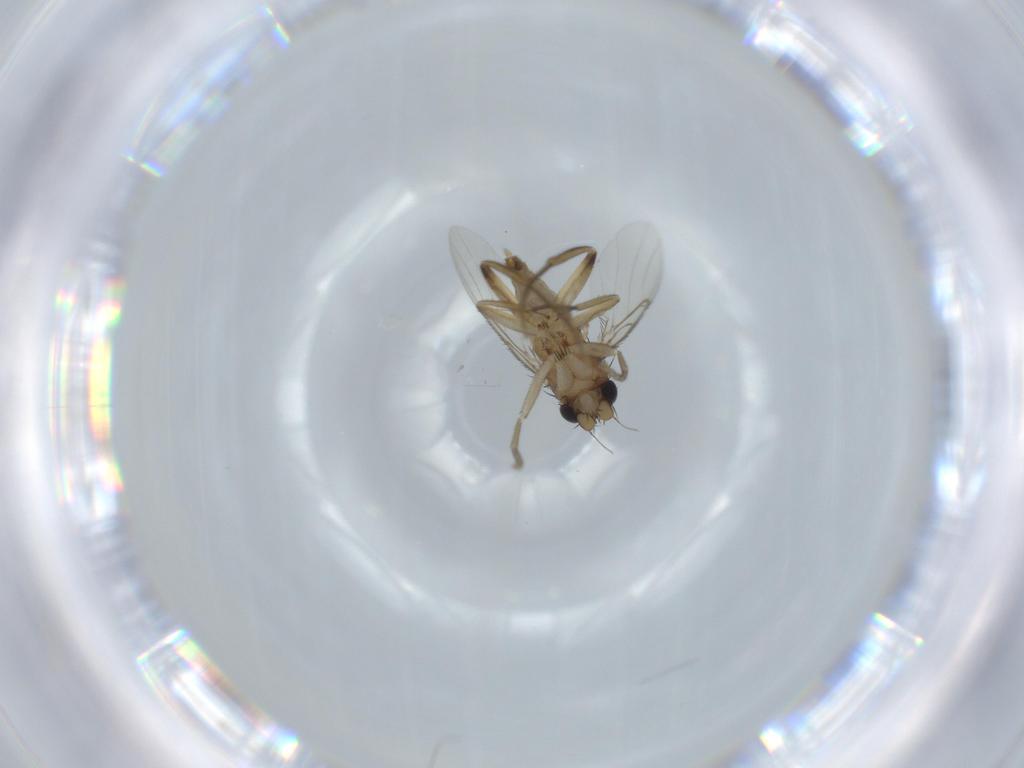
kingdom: Animalia
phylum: Arthropoda
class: Insecta
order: Diptera
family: Phoridae
